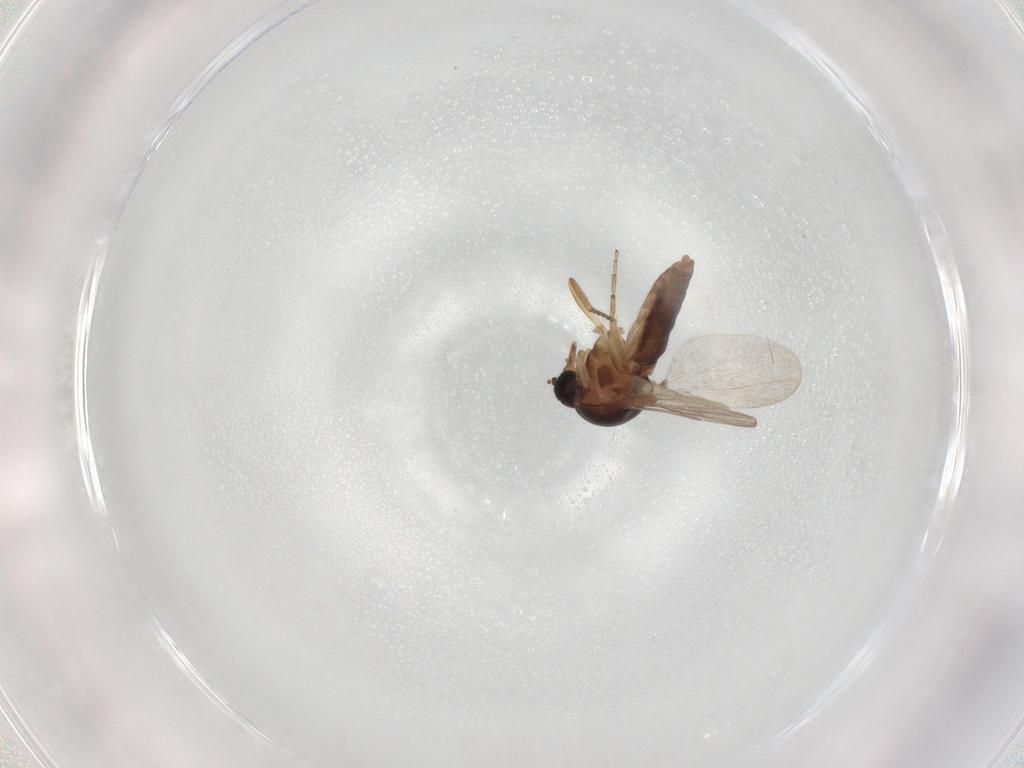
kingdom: Animalia
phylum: Arthropoda
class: Insecta
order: Diptera
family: Ceratopogonidae
